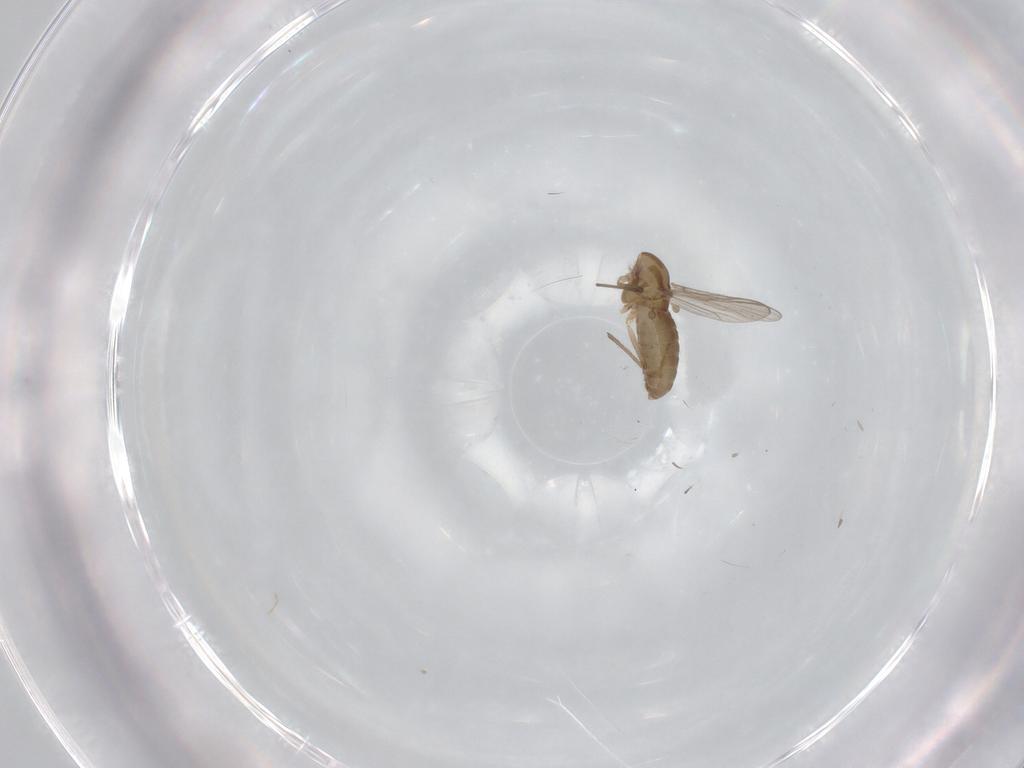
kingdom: Animalia
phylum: Arthropoda
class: Insecta
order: Diptera
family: Chironomidae
